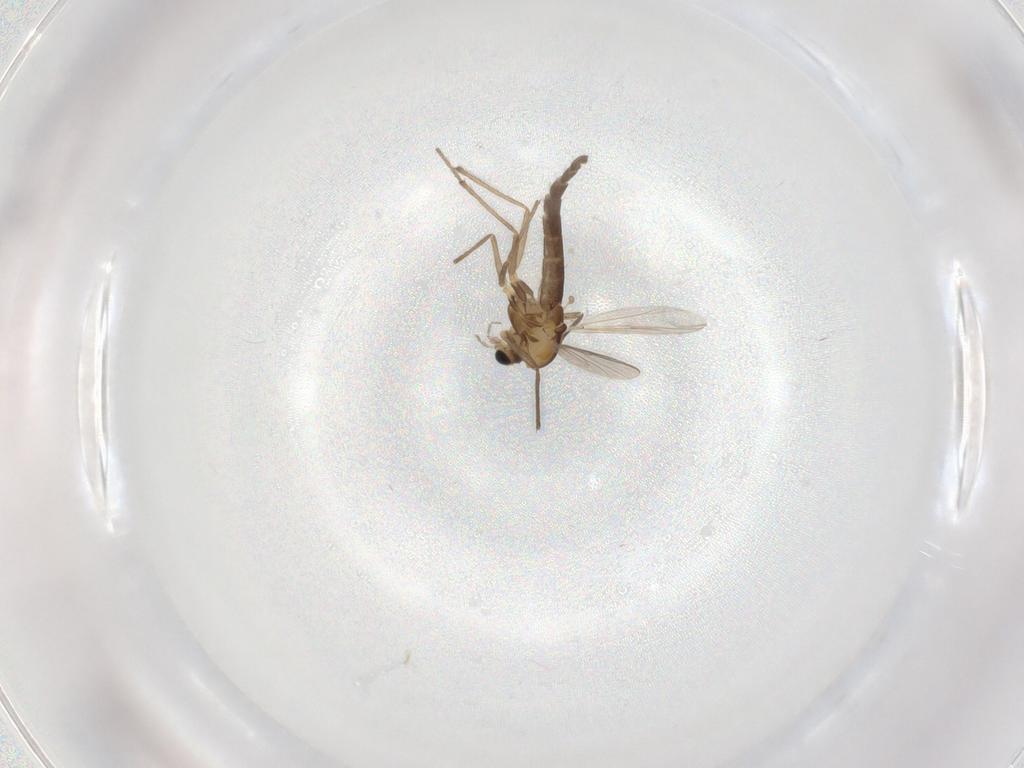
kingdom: Animalia
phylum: Arthropoda
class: Insecta
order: Diptera
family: Chironomidae
